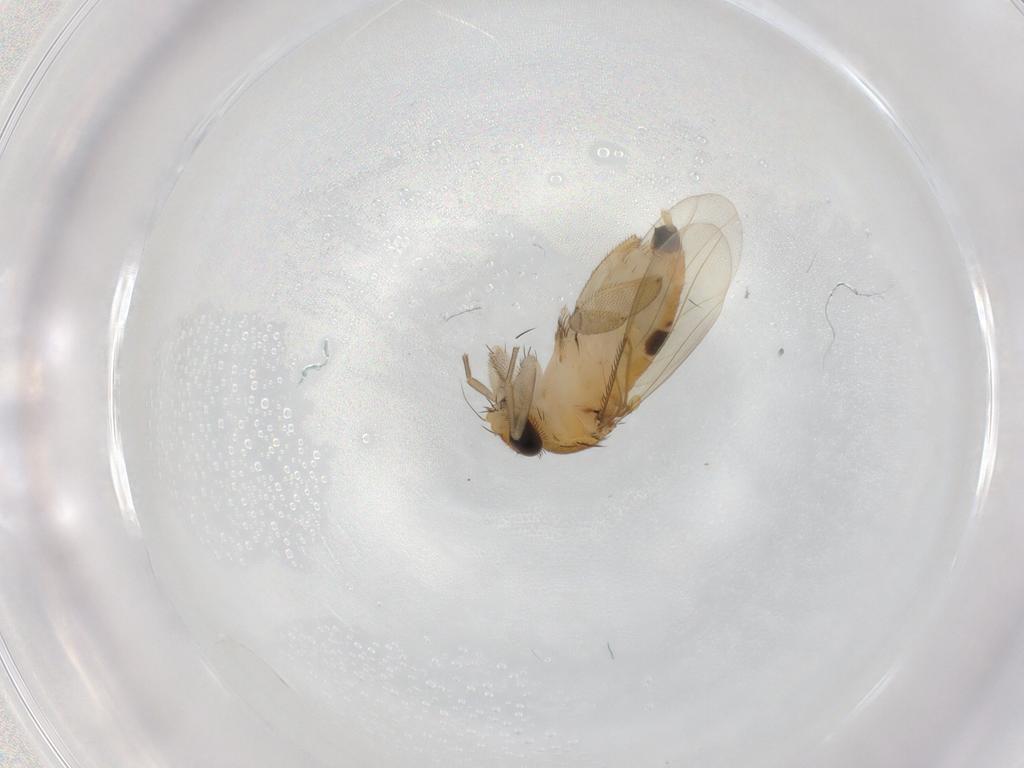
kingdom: Animalia
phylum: Arthropoda
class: Insecta
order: Diptera
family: Phoridae
